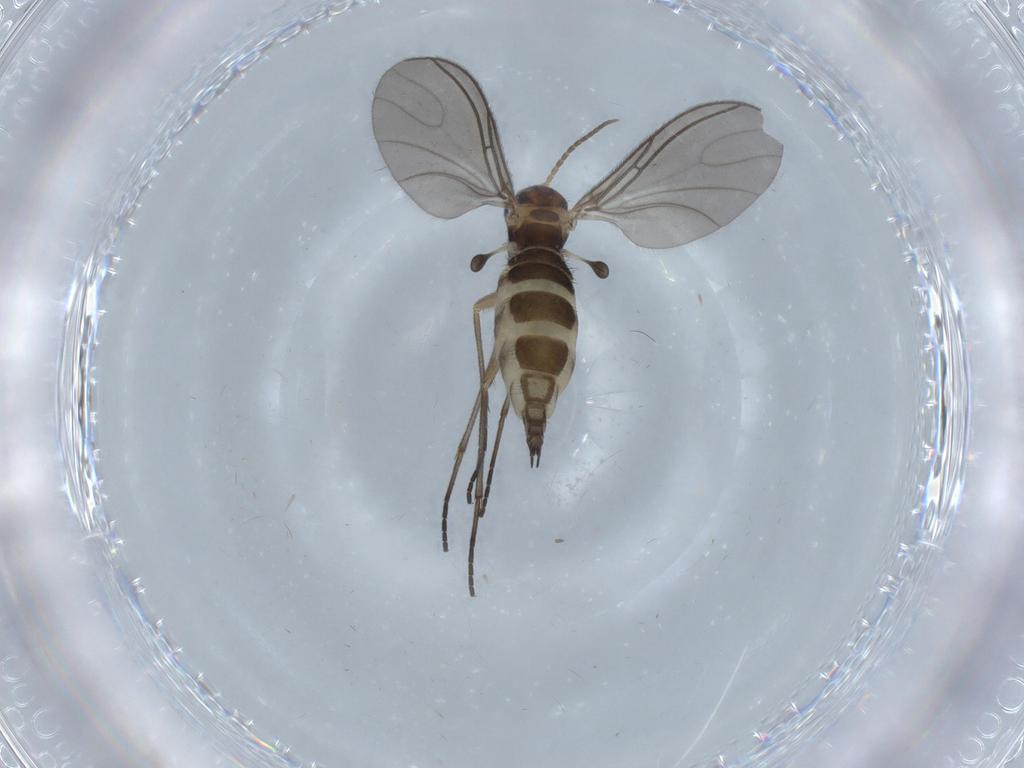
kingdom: Animalia
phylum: Arthropoda
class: Insecta
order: Diptera
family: Cecidomyiidae
